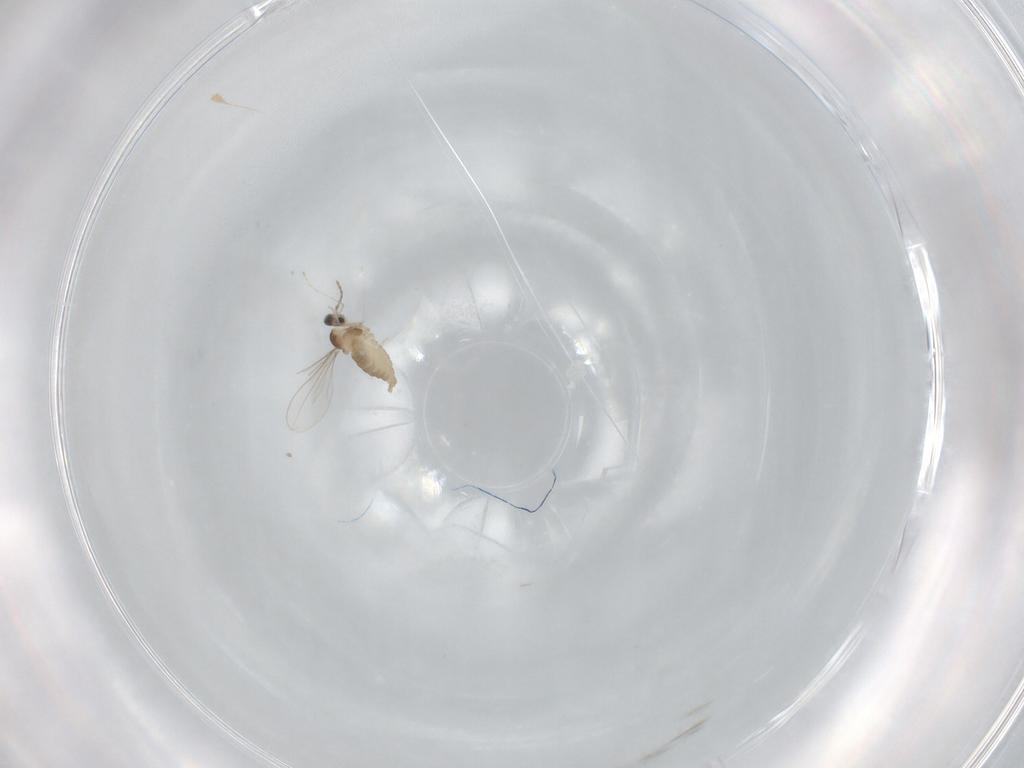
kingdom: Animalia
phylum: Arthropoda
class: Insecta
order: Diptera
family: Cecidomyiidae
